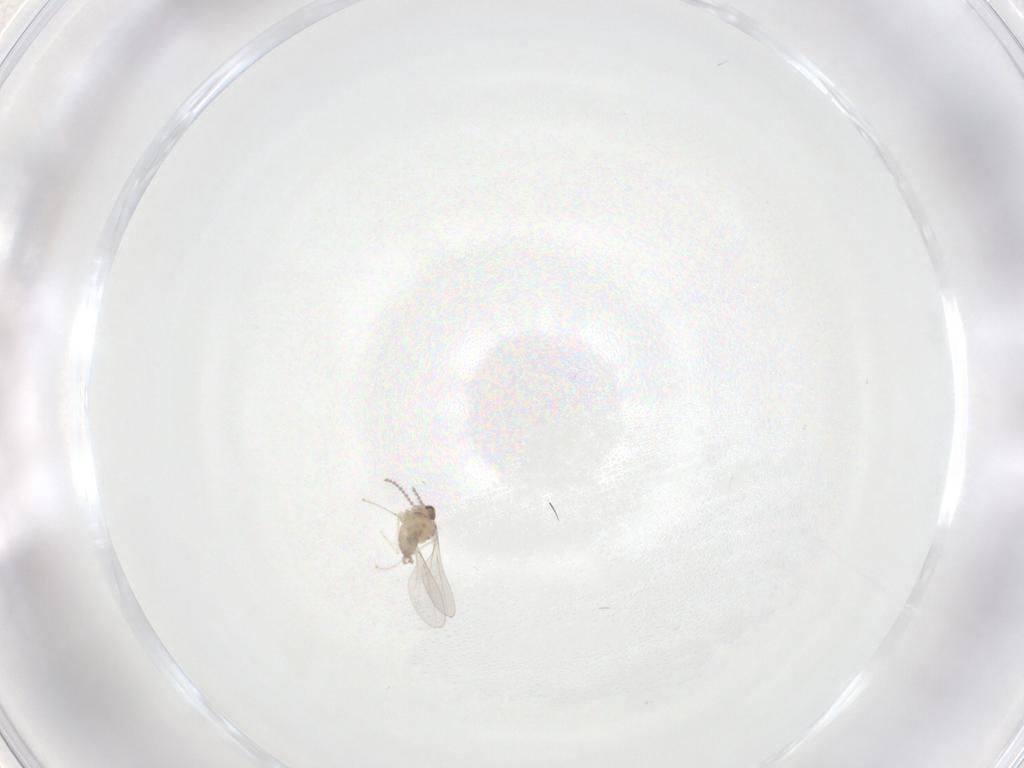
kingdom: Animalia
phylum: Arthropoda
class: Insecta
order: Diptera
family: Cecidomyiidae
